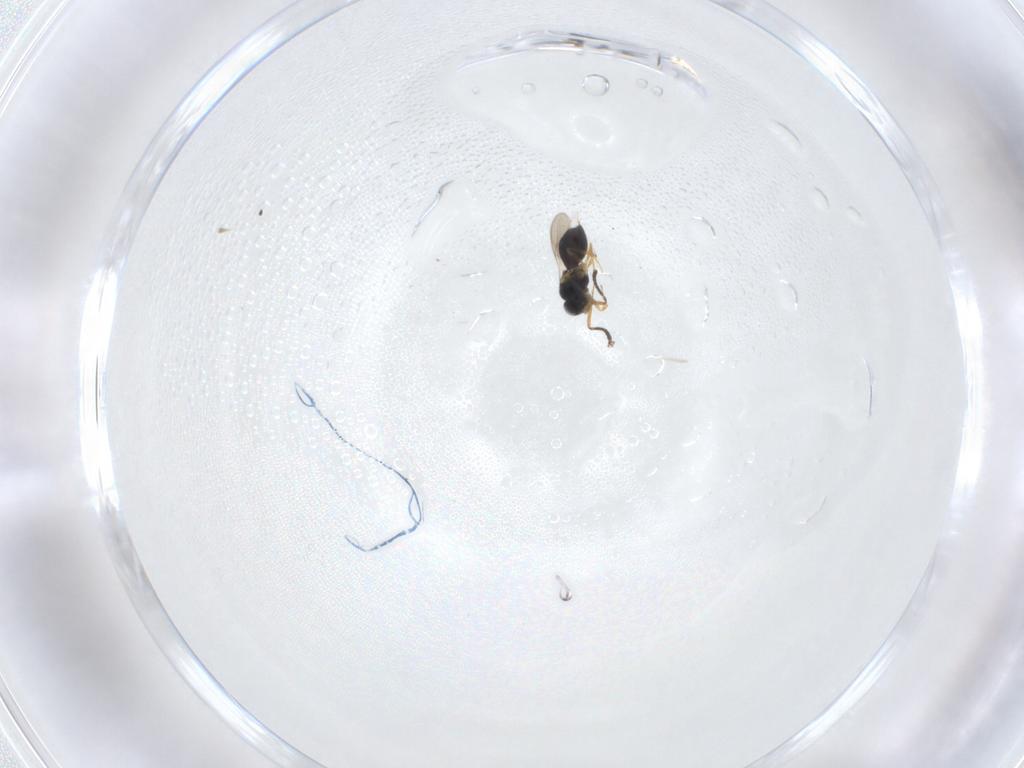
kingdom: Animalia
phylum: Arthropoda
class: Insecta
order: Hymenoptera
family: Scelionidae
